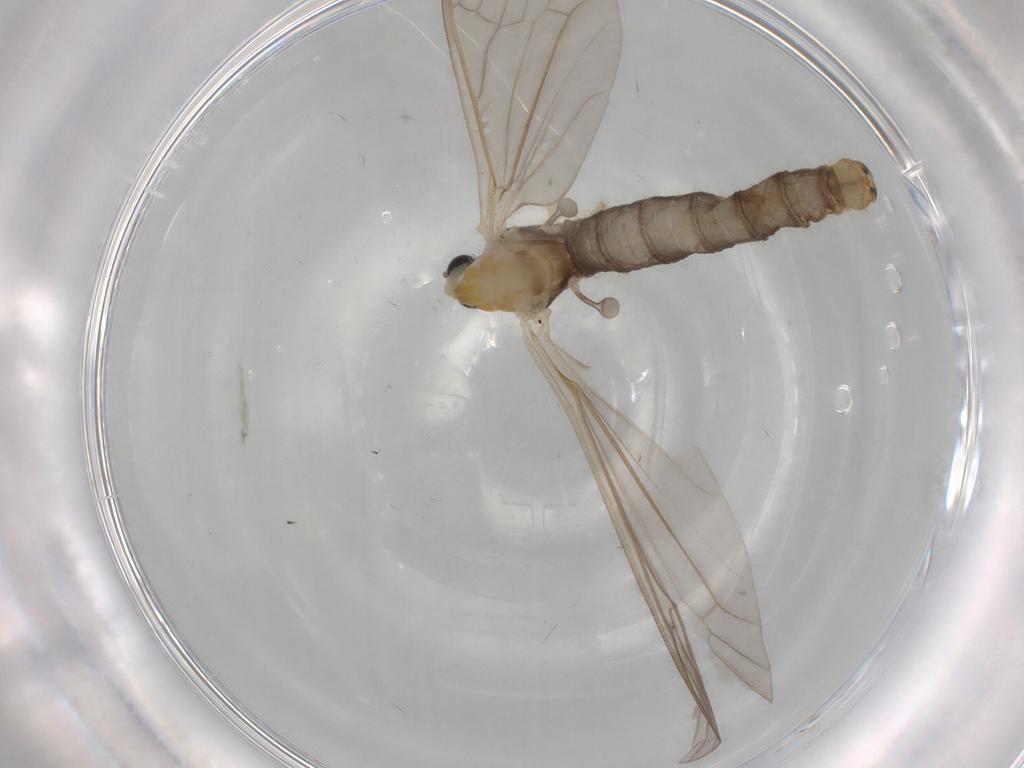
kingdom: Animalia
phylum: Arthropoda
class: Insecta
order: Diptera
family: Limoniidae
